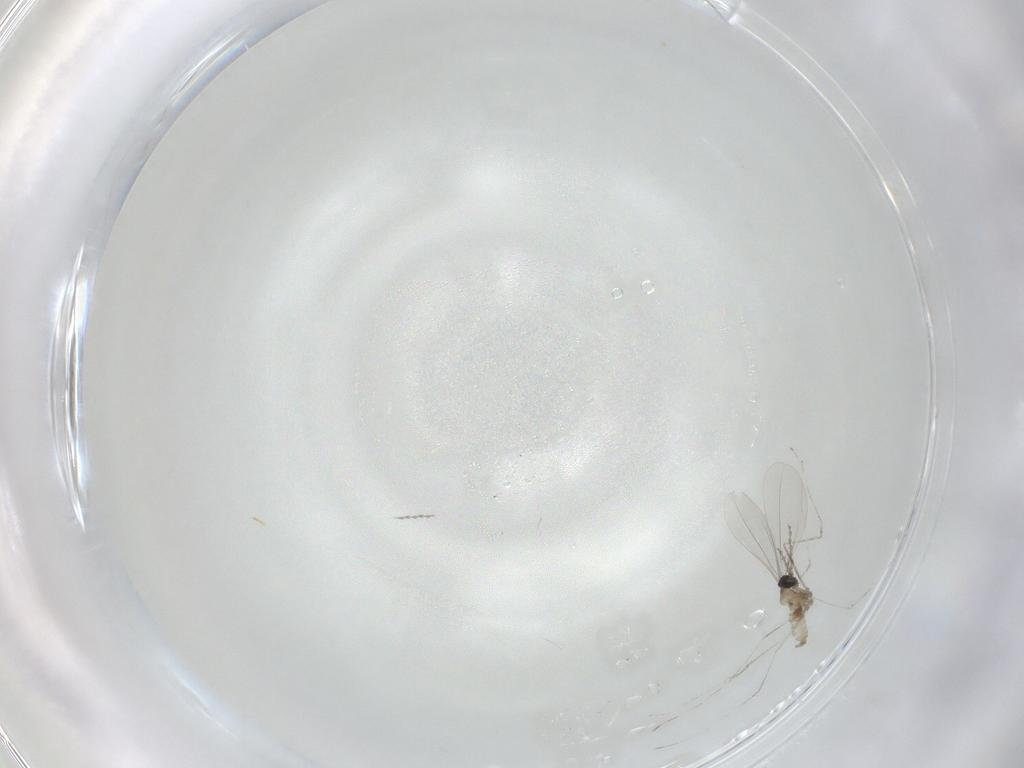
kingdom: Animalia
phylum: Arthropoda
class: Insecta
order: Diptera
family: Cecidomyiidae
